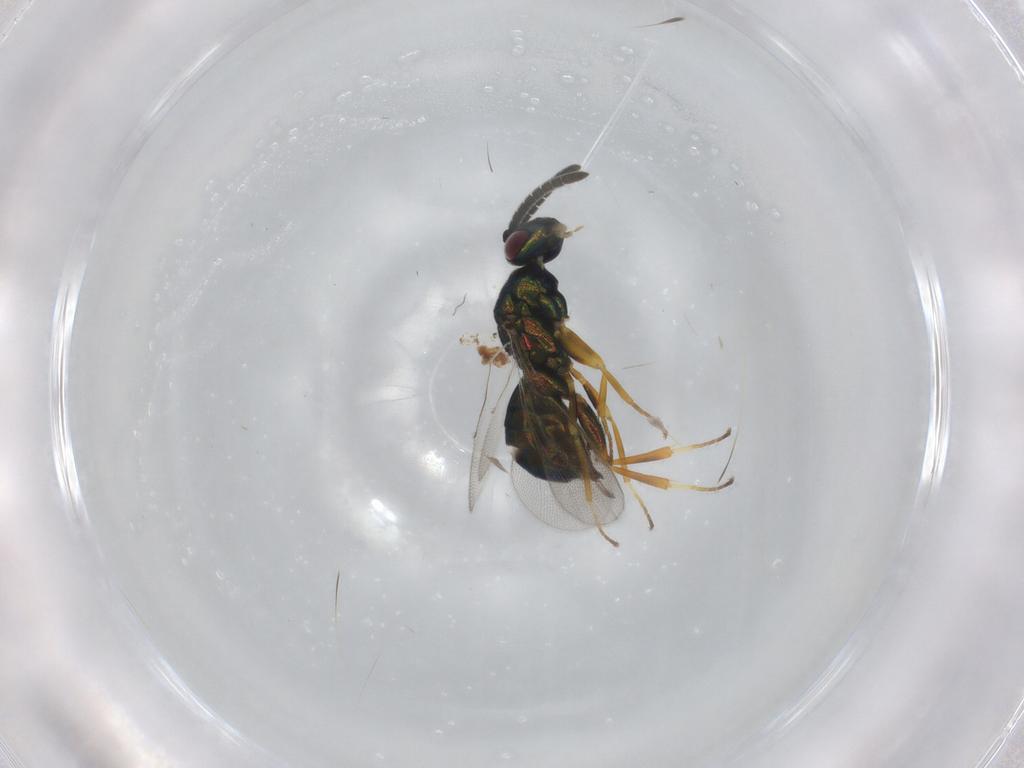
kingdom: Animalia
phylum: Arthropoda
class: Insecta
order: Hymenoptera
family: Torymidae
